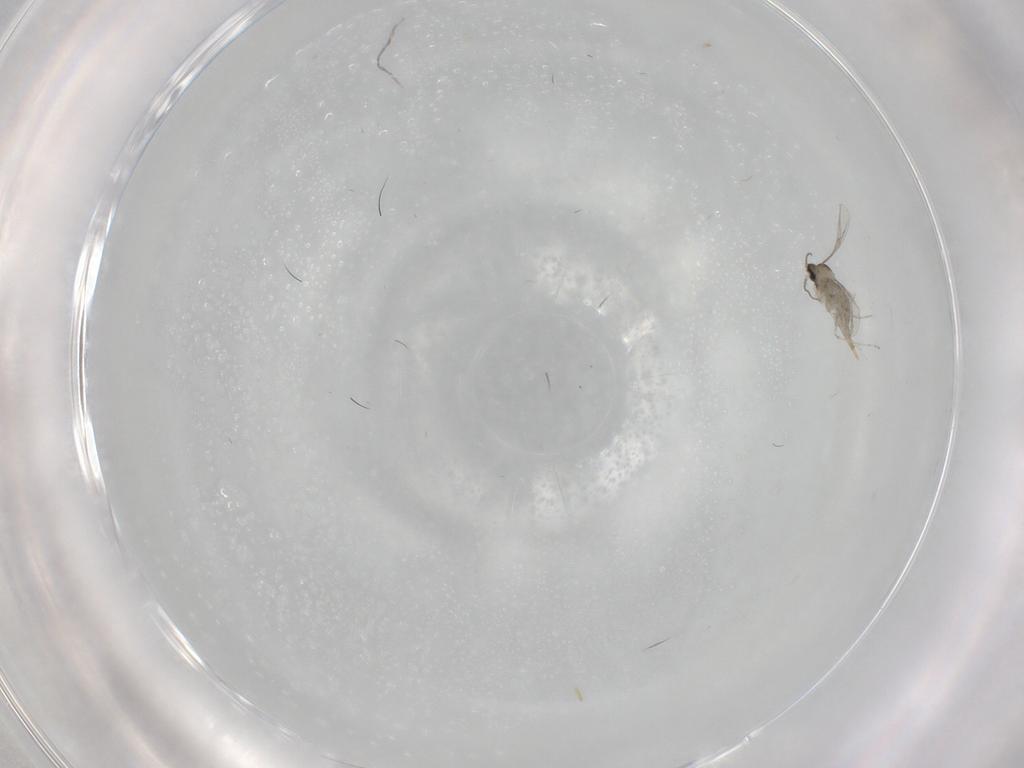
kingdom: Animalia
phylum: Arthropoda
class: Insecta
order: Diptera
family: Mycetophilidae
